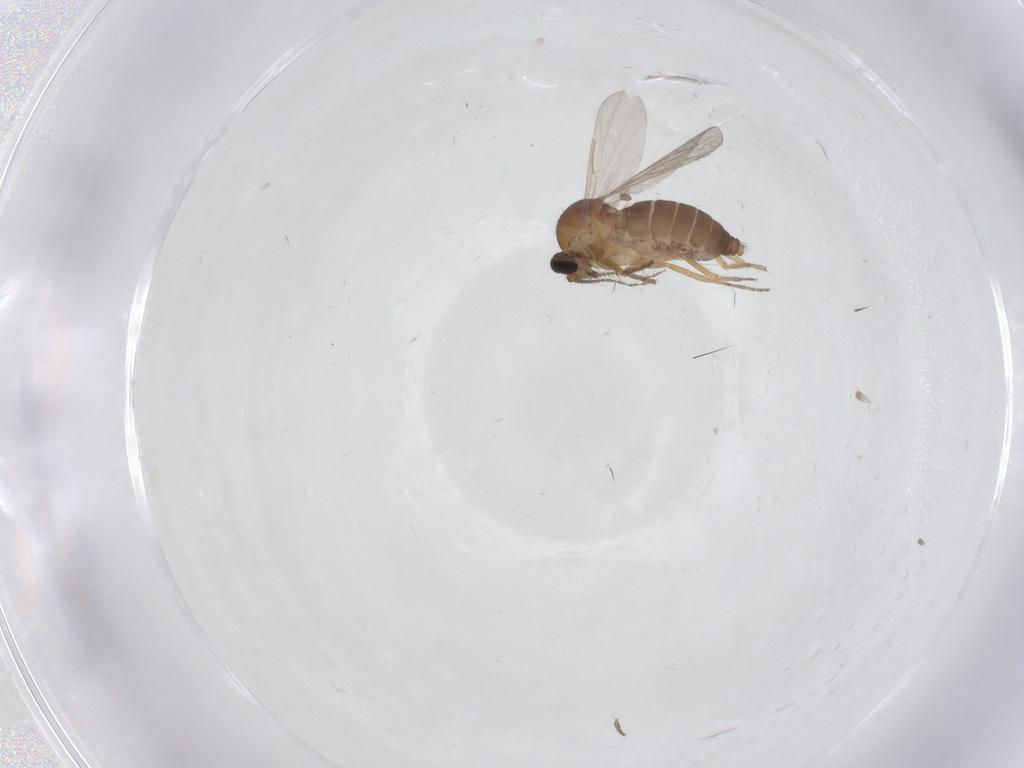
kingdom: Animalia
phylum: Arthropoda
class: Insecta
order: Diptera
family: Ceratopogonidae
